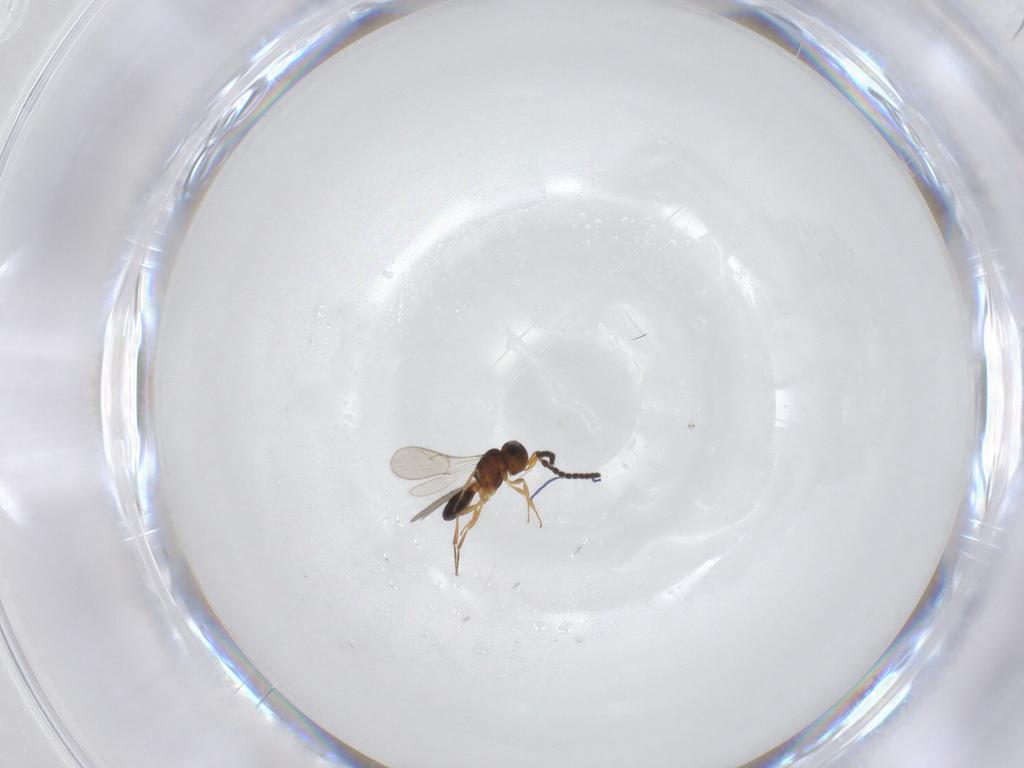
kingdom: Animalia
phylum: Arthropoda
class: Insecta
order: Hymenoptera
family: Scelionidae
